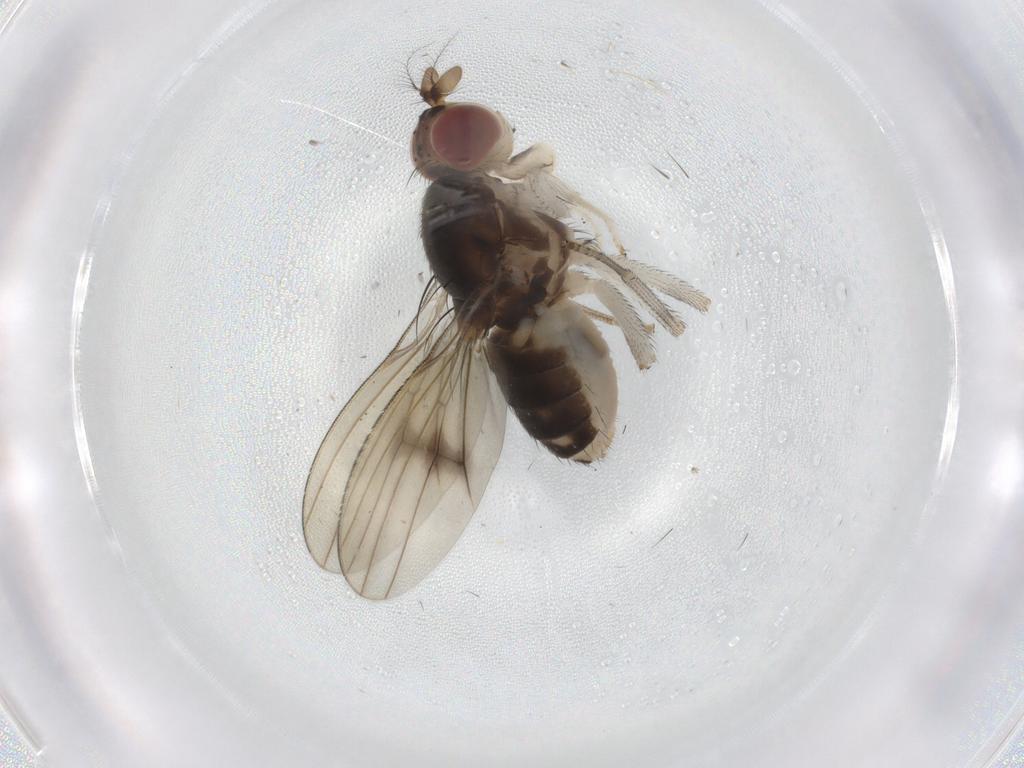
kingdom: Animalia
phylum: Arthropoda
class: Insecta
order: Diptera
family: Lauxaniidae
